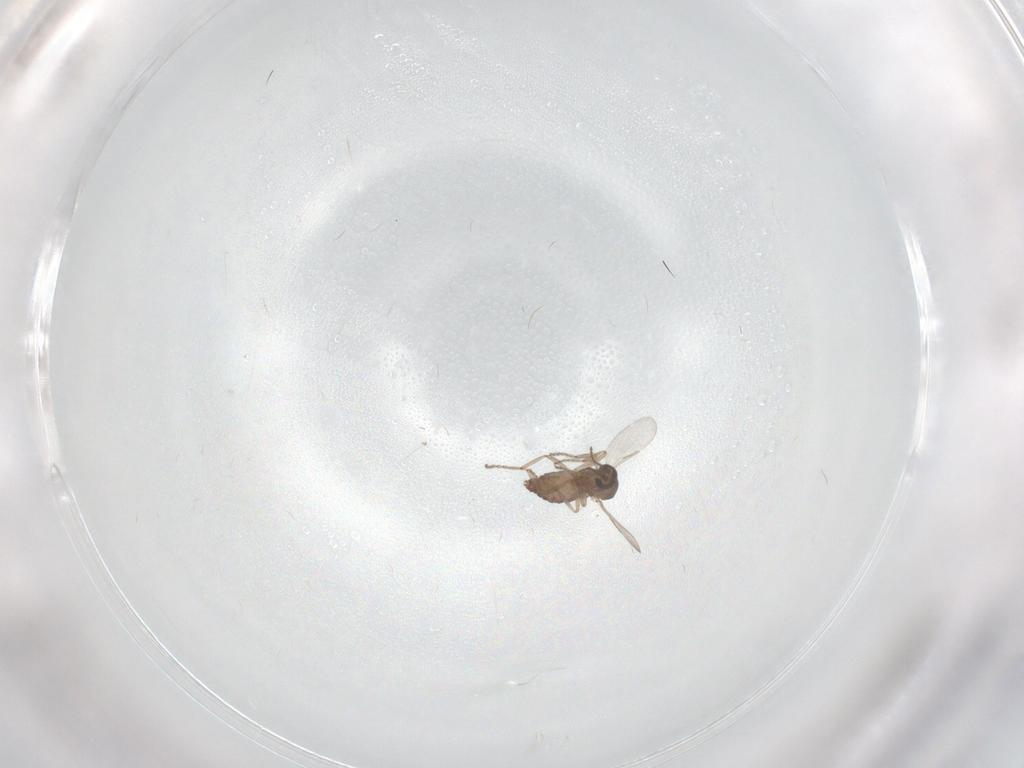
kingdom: Animalia
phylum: Arthropoda
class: Insecta
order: Diptera
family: Ceratopogonidae
